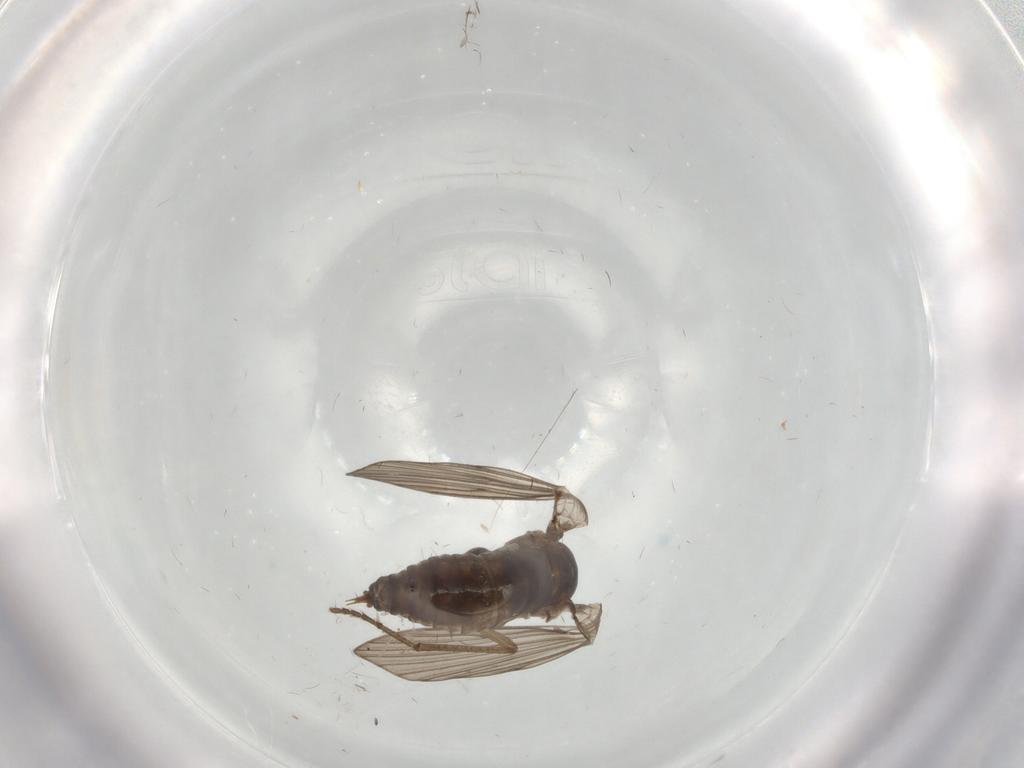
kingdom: Animalia
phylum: Arthropoda
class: Insecta
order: Diptera
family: Psychodidae
